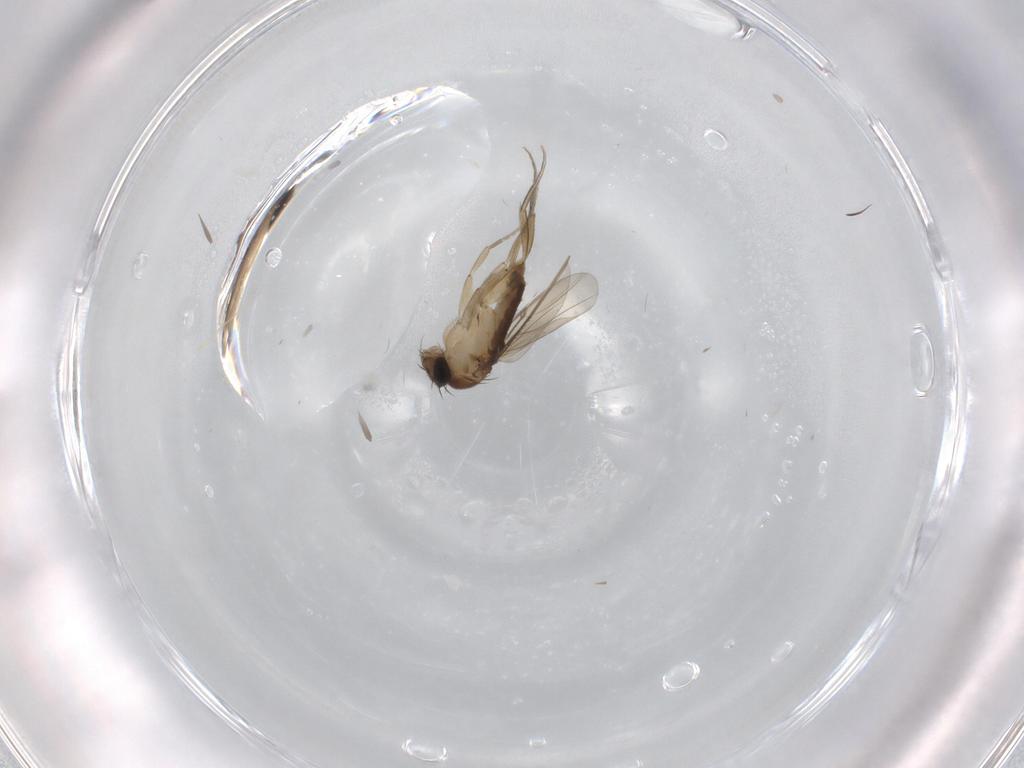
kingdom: Animalia
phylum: Arthropoda
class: Insecta
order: Diptera
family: Phoridae
